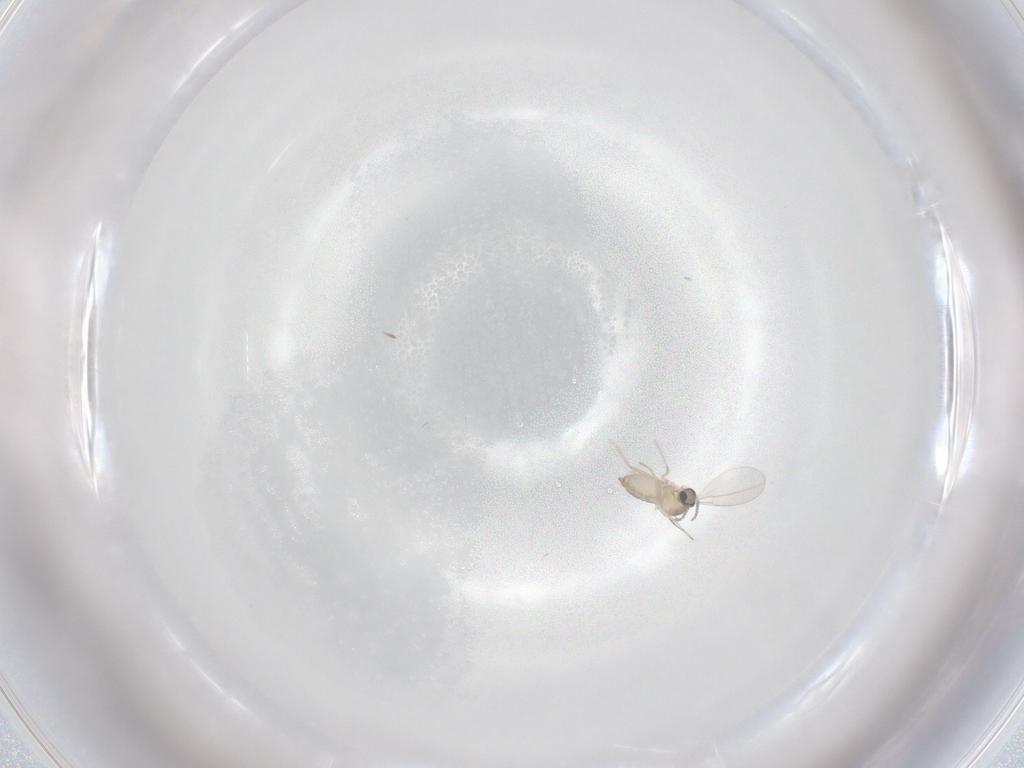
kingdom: Animalia
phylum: Arthropoda
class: Insecta
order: Diptera
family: Cecidomyiidae
